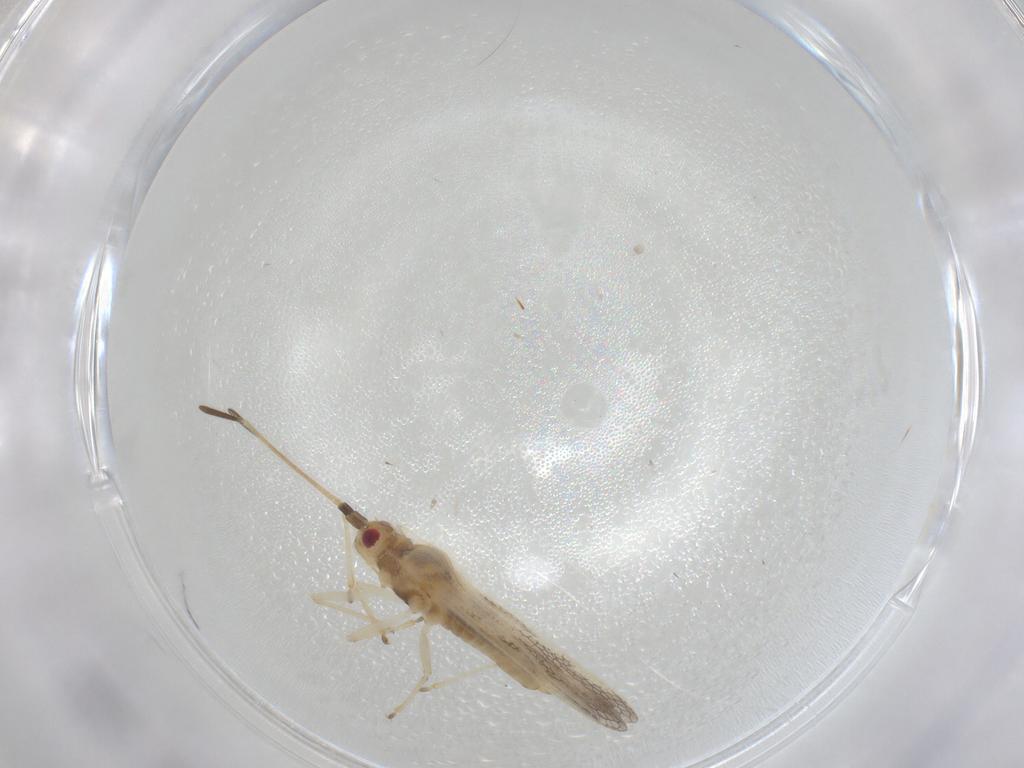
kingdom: Animalia
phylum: Arthropoda
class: Insecta
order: Hemiptera
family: Tingidae
